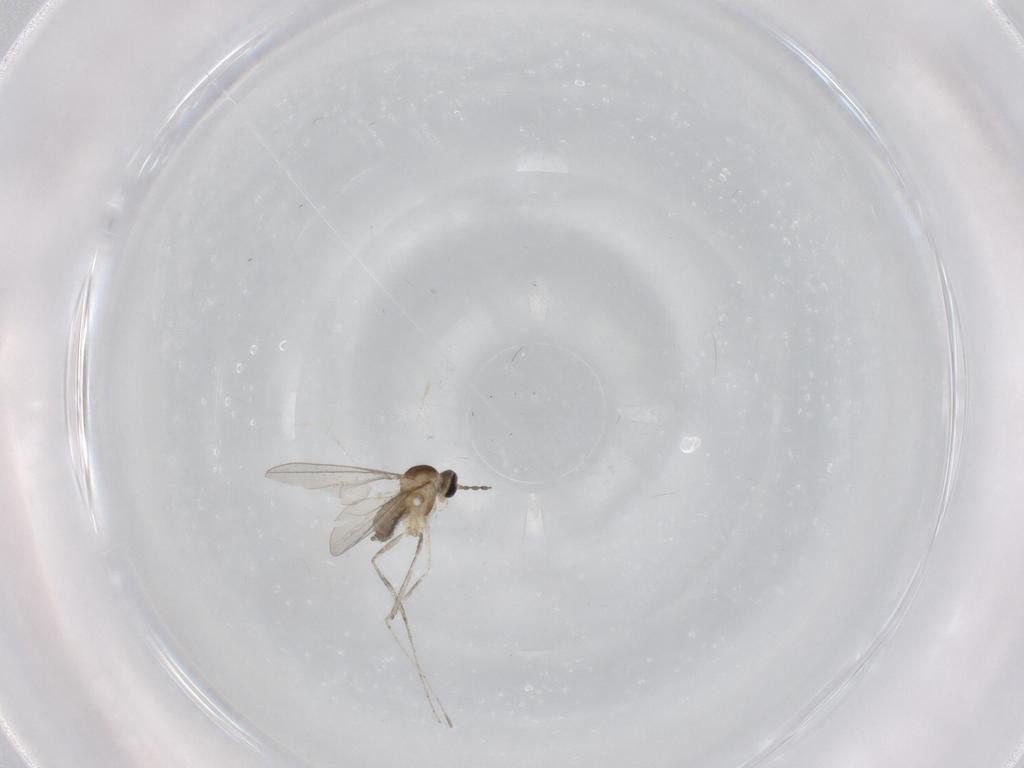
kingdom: Animalia
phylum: Arthropoda
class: Insecta
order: Diptera
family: Cecidomyiidae
